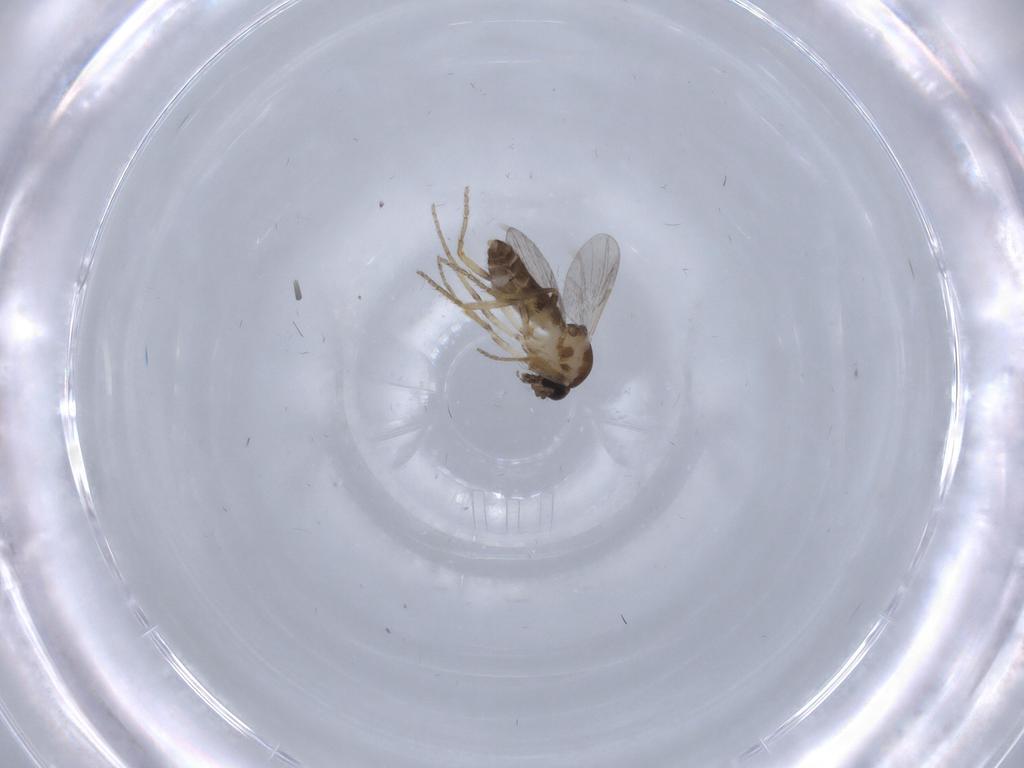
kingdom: Animalia
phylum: Arthropoda
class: Insecta
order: Diptera
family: Ceratopogonidae
